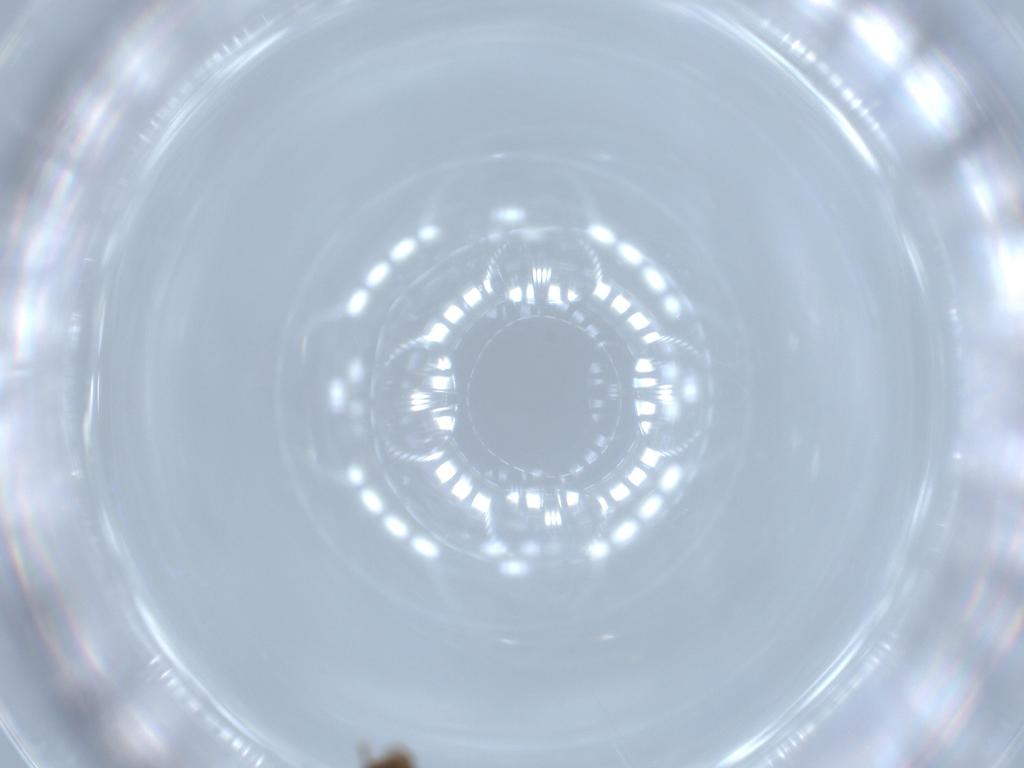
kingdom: Animalia
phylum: Arthropoda
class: Insecta
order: Coleoptera
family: Ptiliidae
